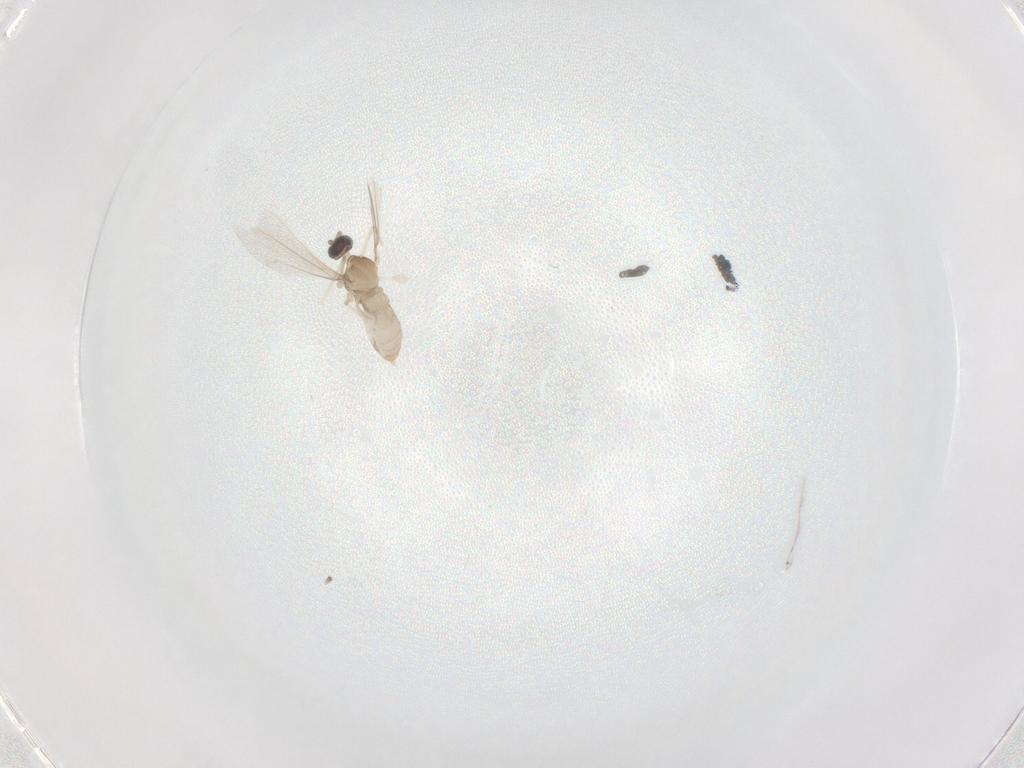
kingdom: Animalia
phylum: Arthropoda
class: Insecta
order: Diptera
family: Cecidomyiidae
